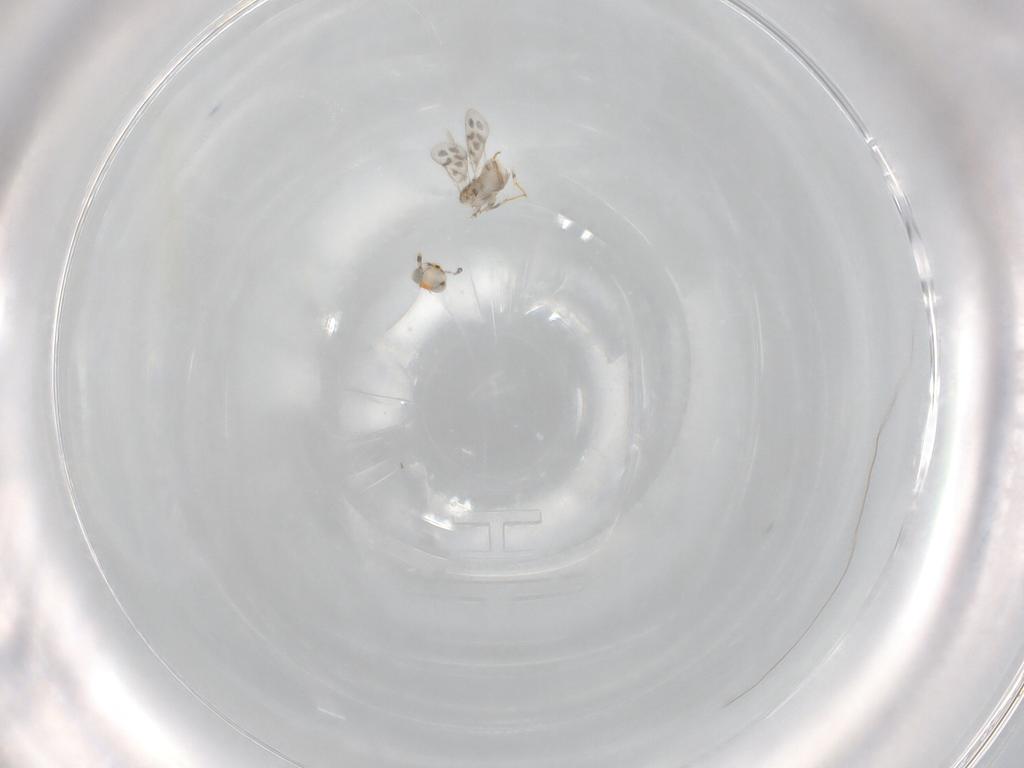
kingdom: Animalia
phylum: Arthropoda
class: Insecta
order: Hymenoptera
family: Aphelinidae
